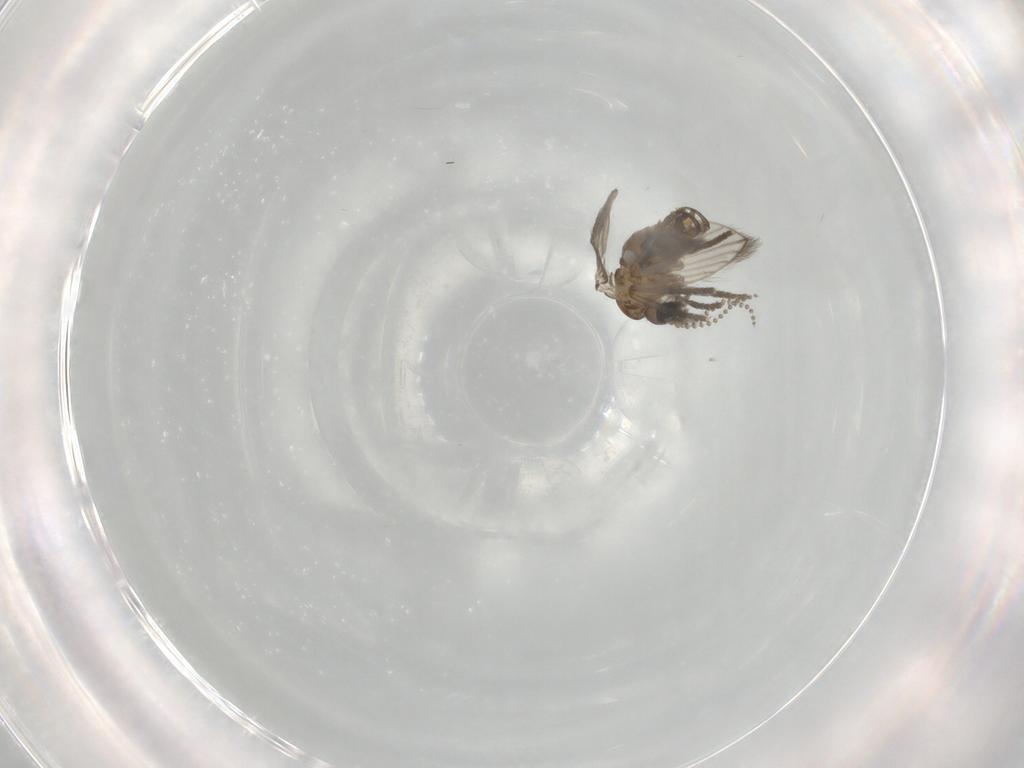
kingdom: Animalia
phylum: Arthropoda
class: Insecta
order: Diptera
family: Psychodidae
